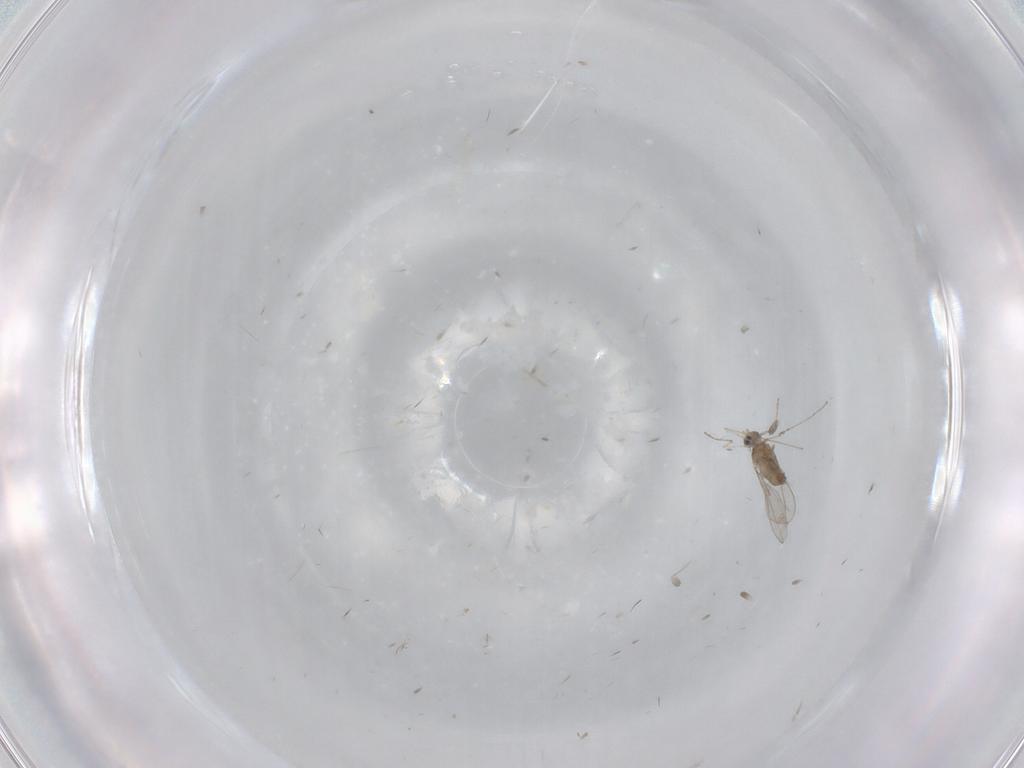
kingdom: Animalia
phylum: Arthropoda
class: Insecta
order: Diptera
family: Cecidomyiidae
